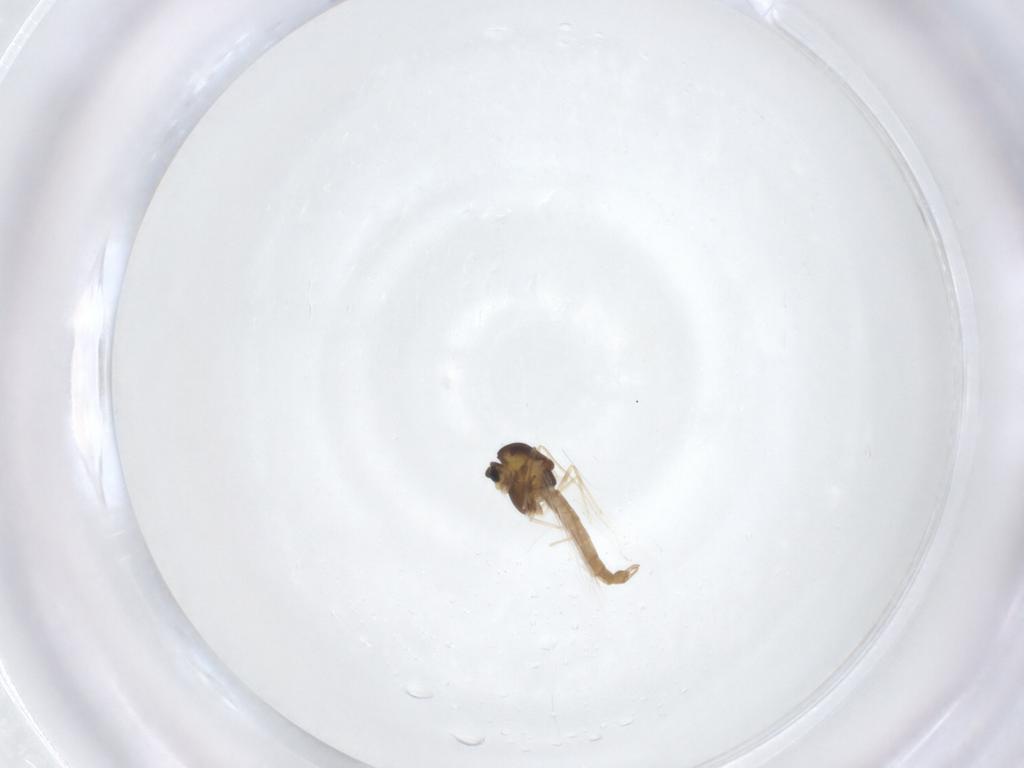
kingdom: Animalia
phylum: Arthropoda
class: Insecta
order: Diptera
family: Chironomidae
